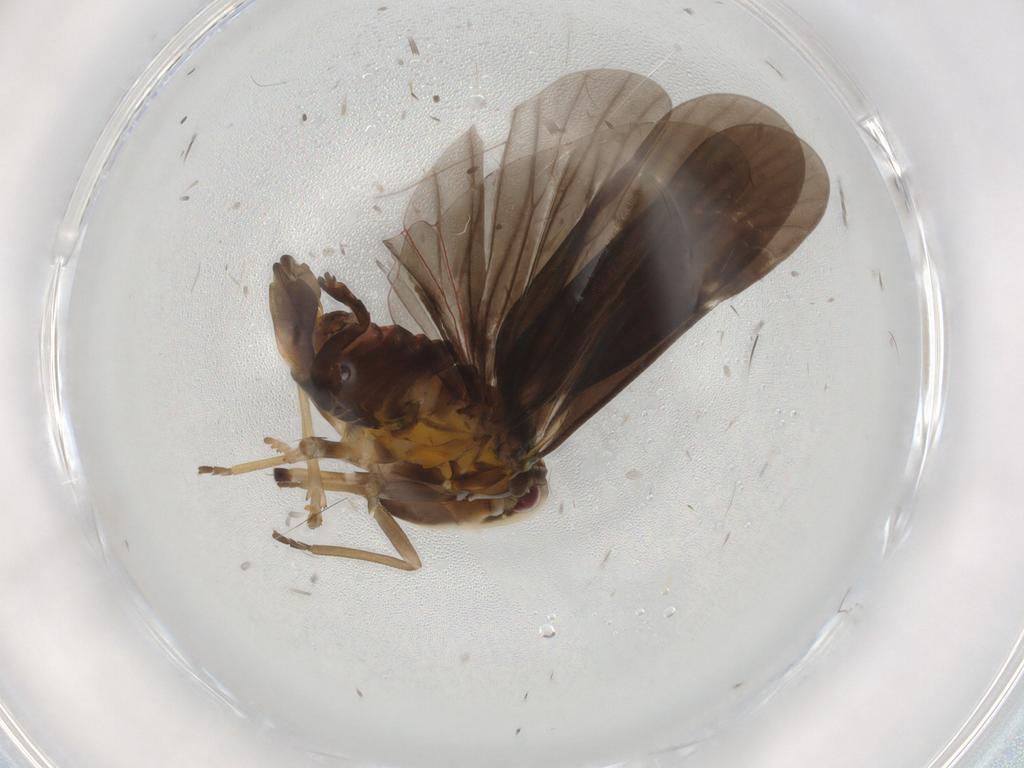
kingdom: Animalia
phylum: Arthropoda
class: Insecta
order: Hemiptera
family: Derbidae
